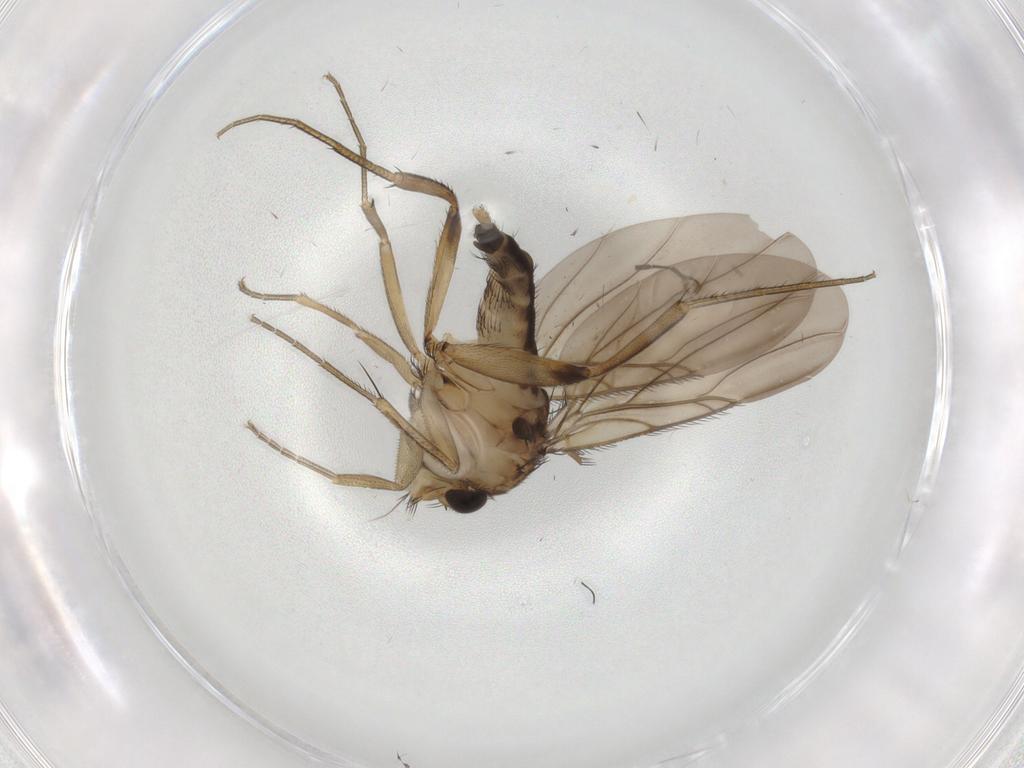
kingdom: Animalia
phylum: Arthropoda
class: Insecta
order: Diptera
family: Phoridae
